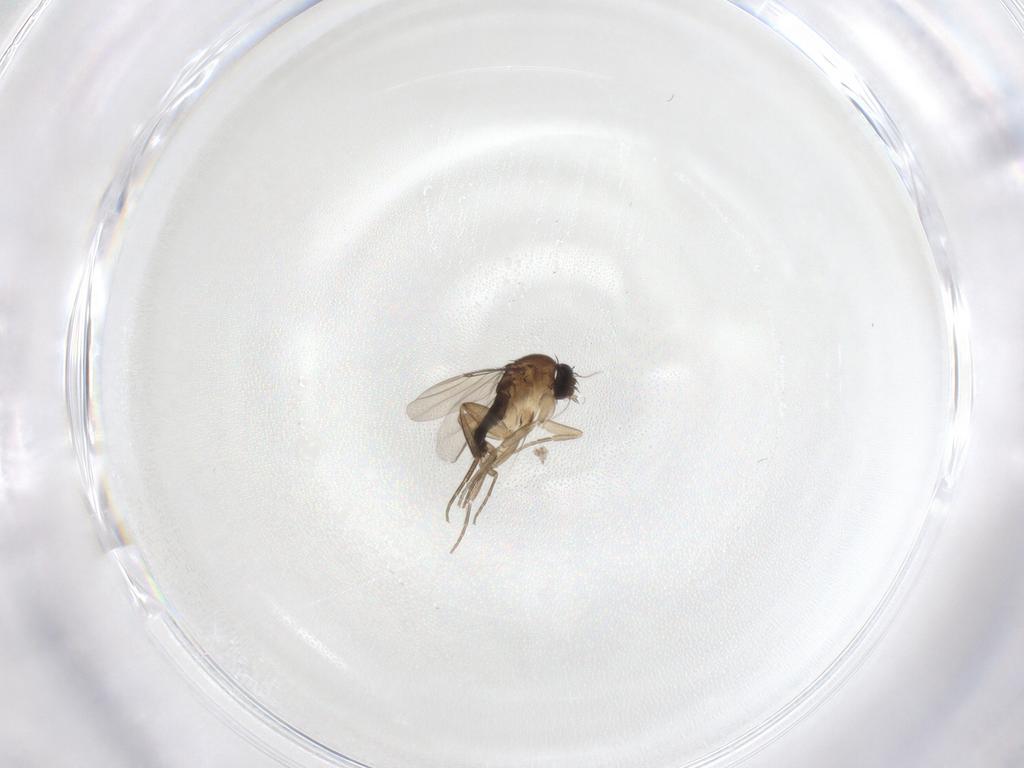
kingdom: Animalia
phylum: Arthropoda
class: Insecta
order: Diptera
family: Phoridae
